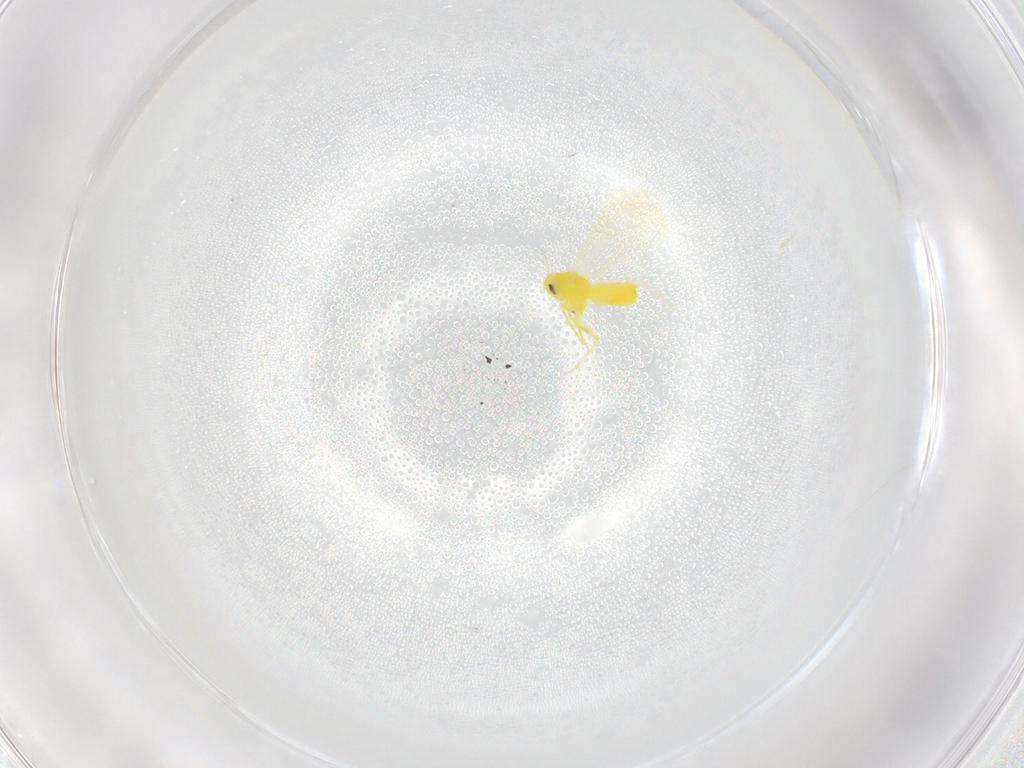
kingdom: Animalia
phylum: Arthropoda
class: Insecta
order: Hemiptera
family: Aleyrodidae
